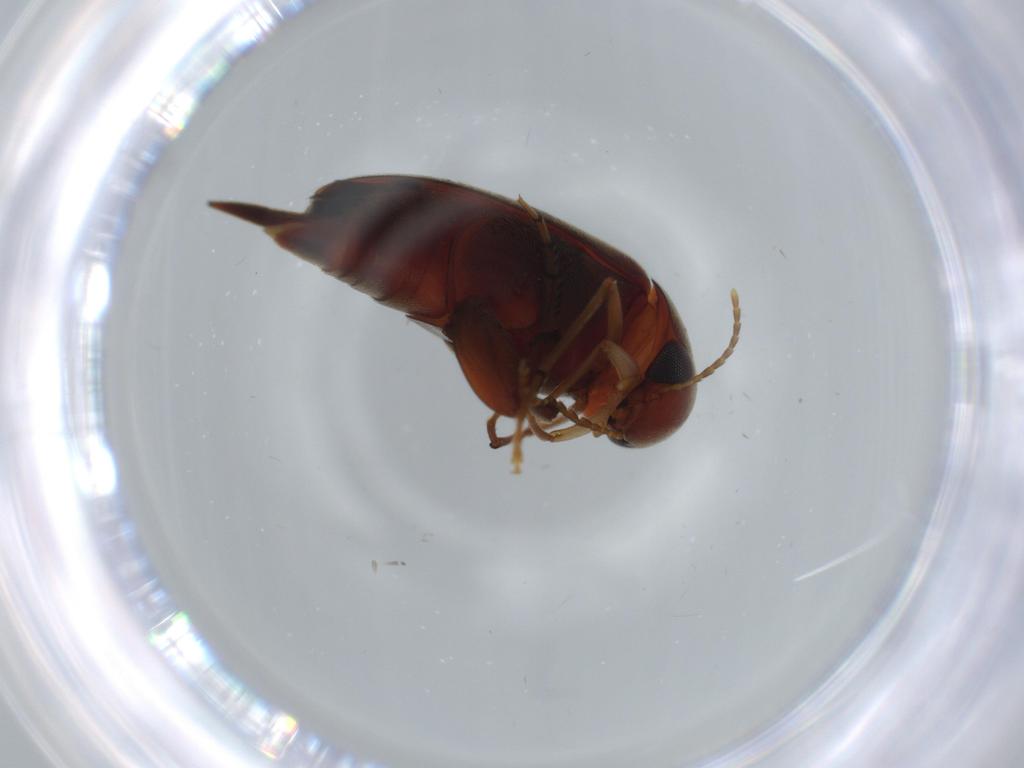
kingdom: Animalia
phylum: Arthropoda
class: Insecta
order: Coleoptera
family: Mordellidae
